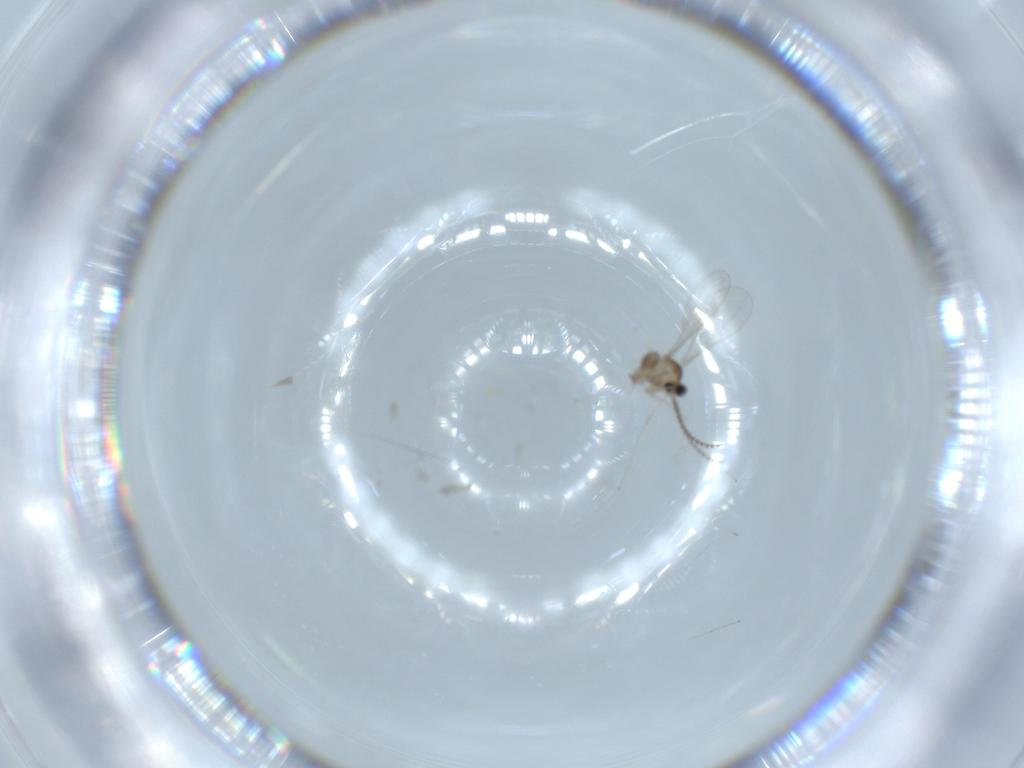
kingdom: Animalia
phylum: Arthropoda
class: Insecta
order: Diptera
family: Cecidomyiidae
